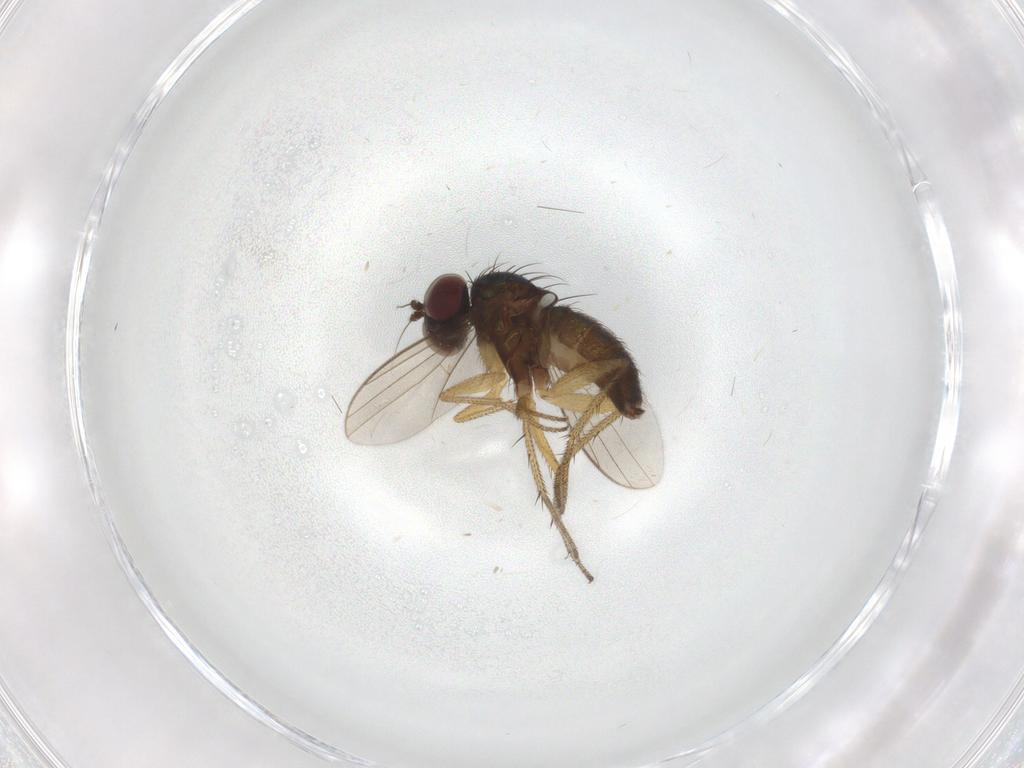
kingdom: Animalia
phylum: Arthropoda
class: Insecta
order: Diptera
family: Dolichopodidae
